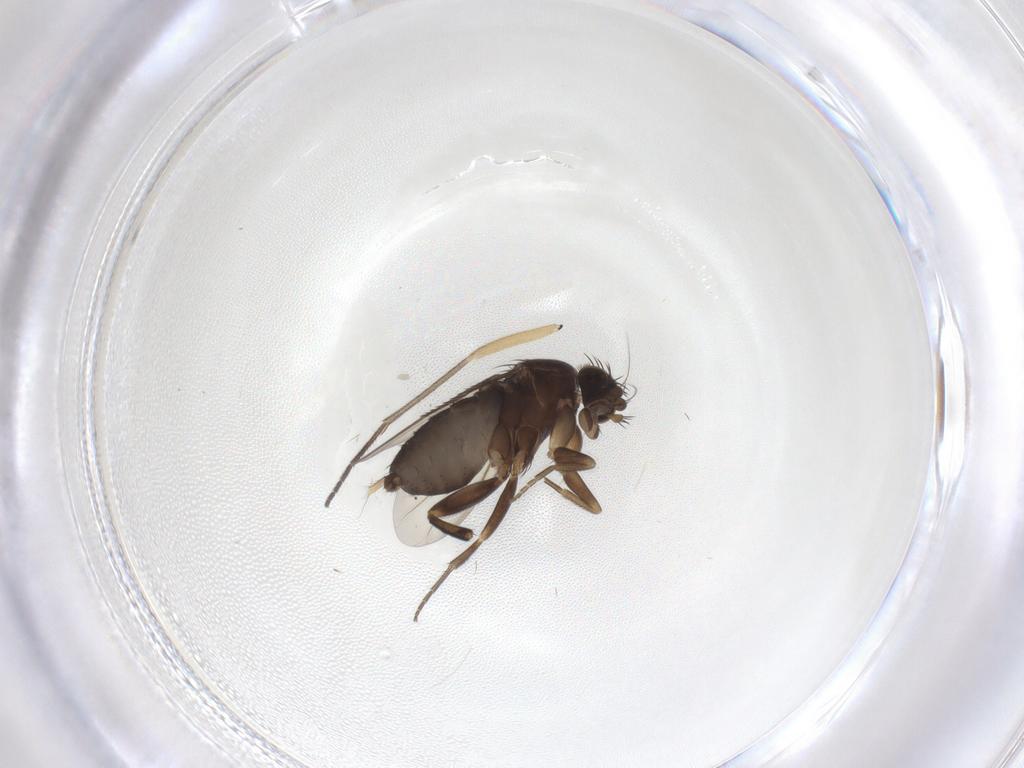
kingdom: Animalia
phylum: Arthropoda
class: Insecta
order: Diptera
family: Phoridae
